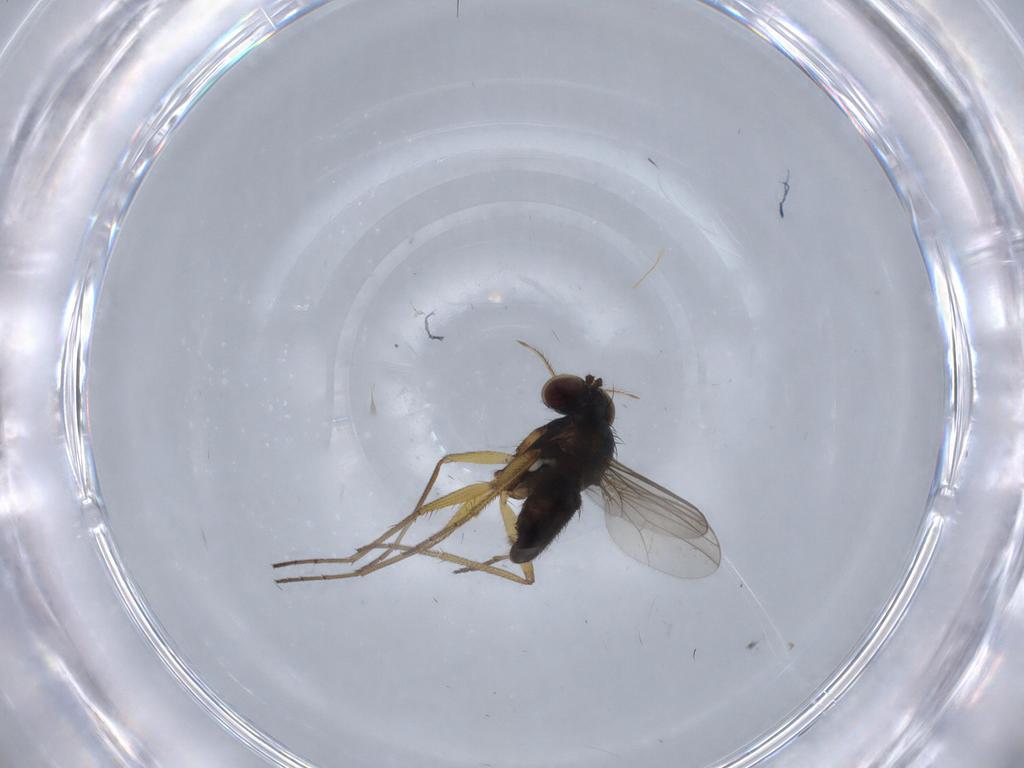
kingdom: Animalia
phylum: Arthropoda
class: Insecta
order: Diptera
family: Dolichopodidae
